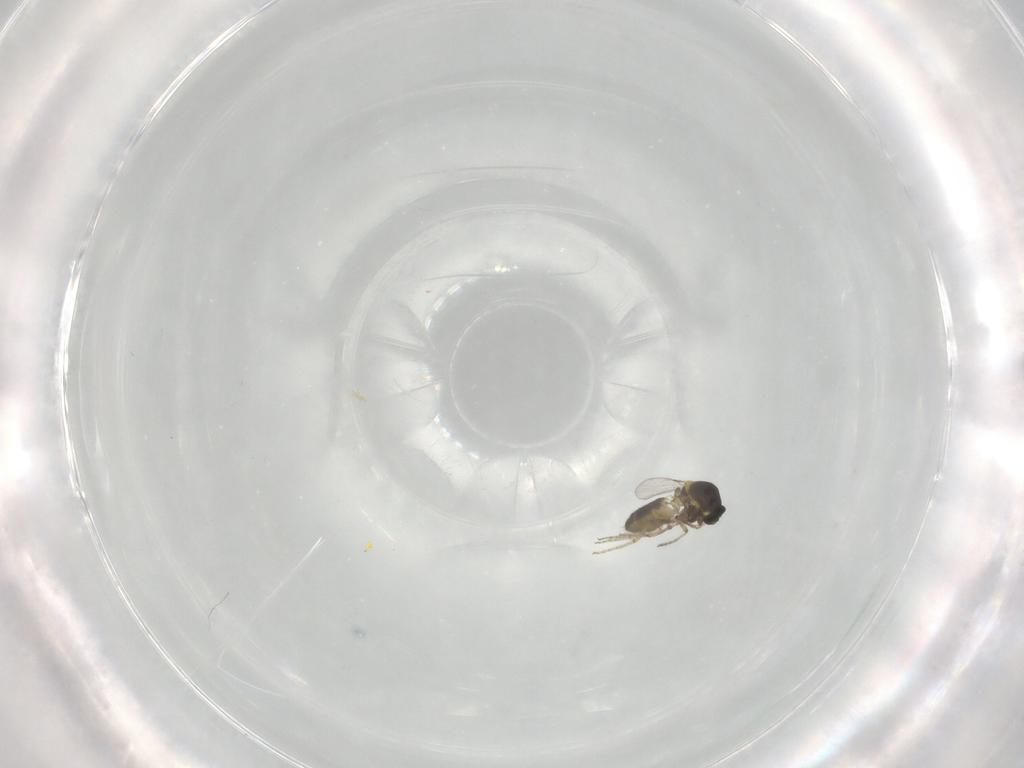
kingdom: Animalia
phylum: Arthropoda
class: Insecta
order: Diptera
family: Ceratopogonidae
